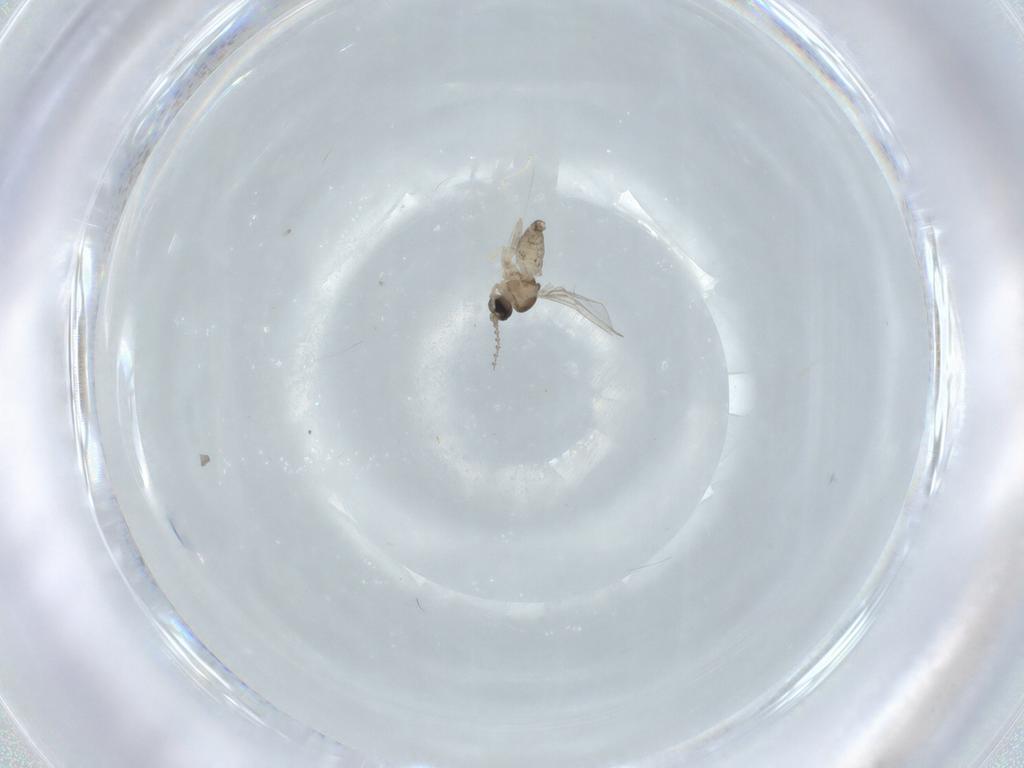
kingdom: Animalia
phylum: Arthropoda
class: Insecta
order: Diptera
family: Cecidomyiidae
